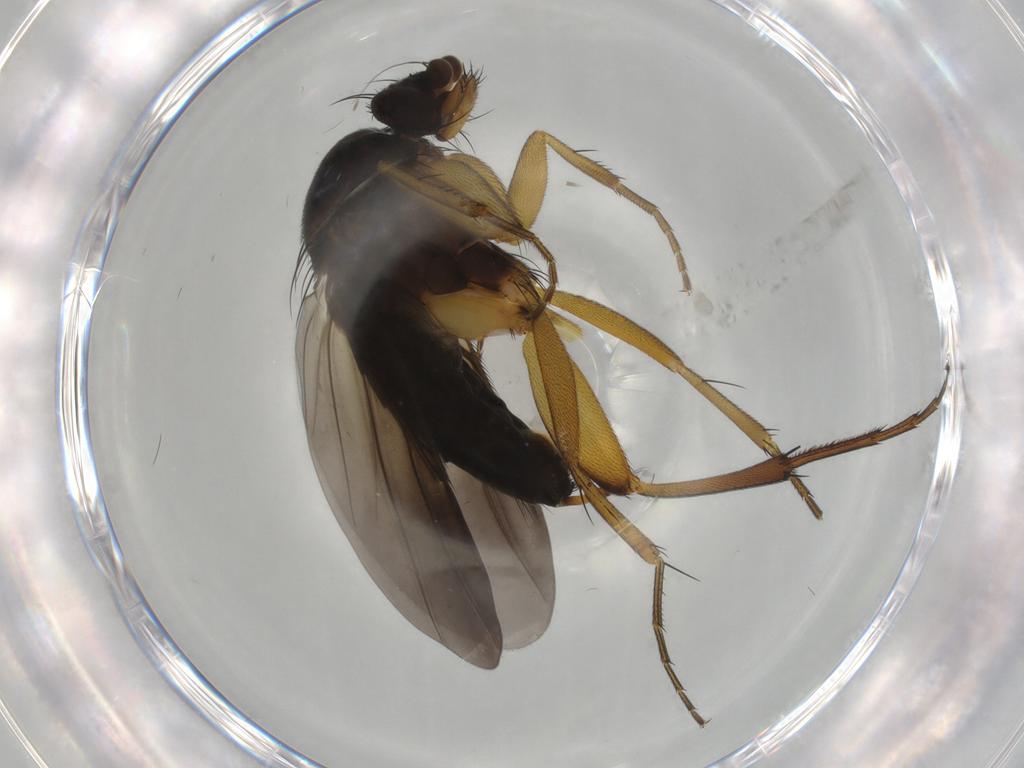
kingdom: Animalia
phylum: Arthropoda
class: Insecta
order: Diptera
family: Phoridae
